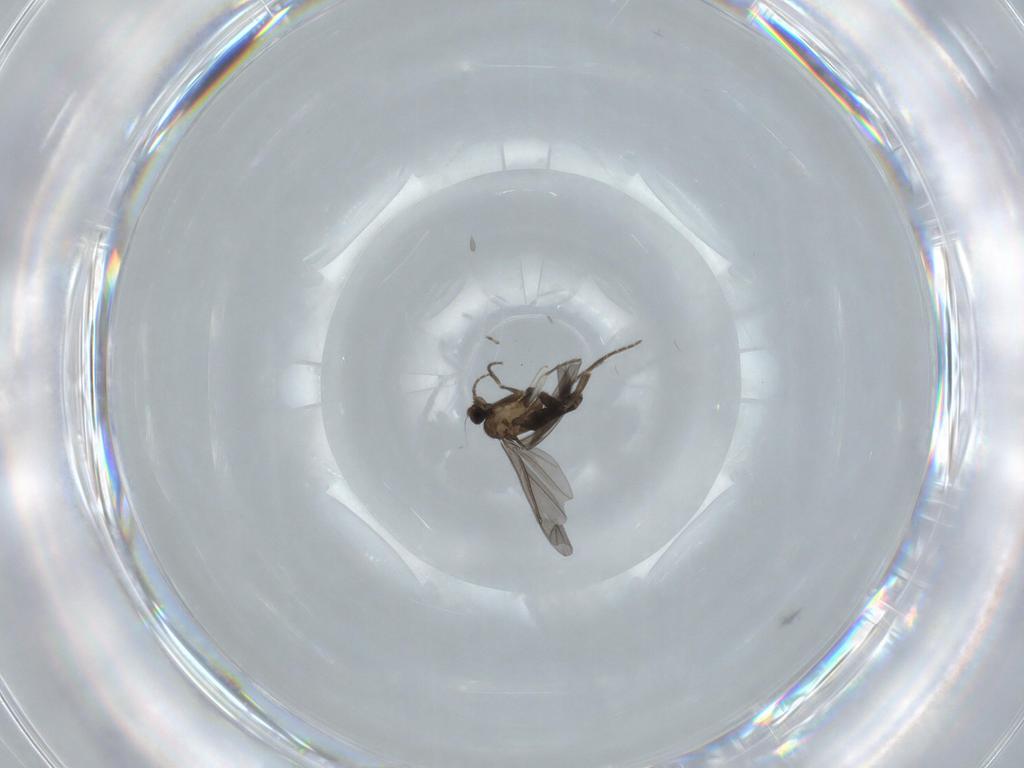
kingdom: Animalia
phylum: Arthropoda
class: Insecta
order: Diptera
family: Phoridae
